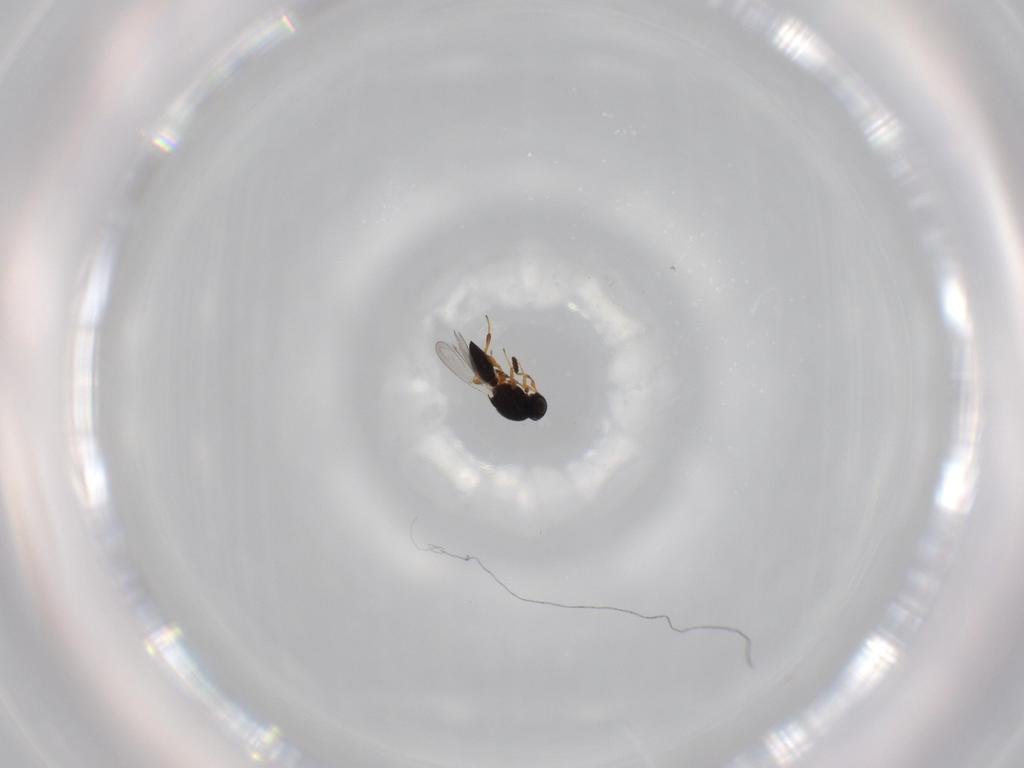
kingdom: Animalia
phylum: Arthropoda
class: Insecta
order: Hymenoptera
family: Platygastridae
